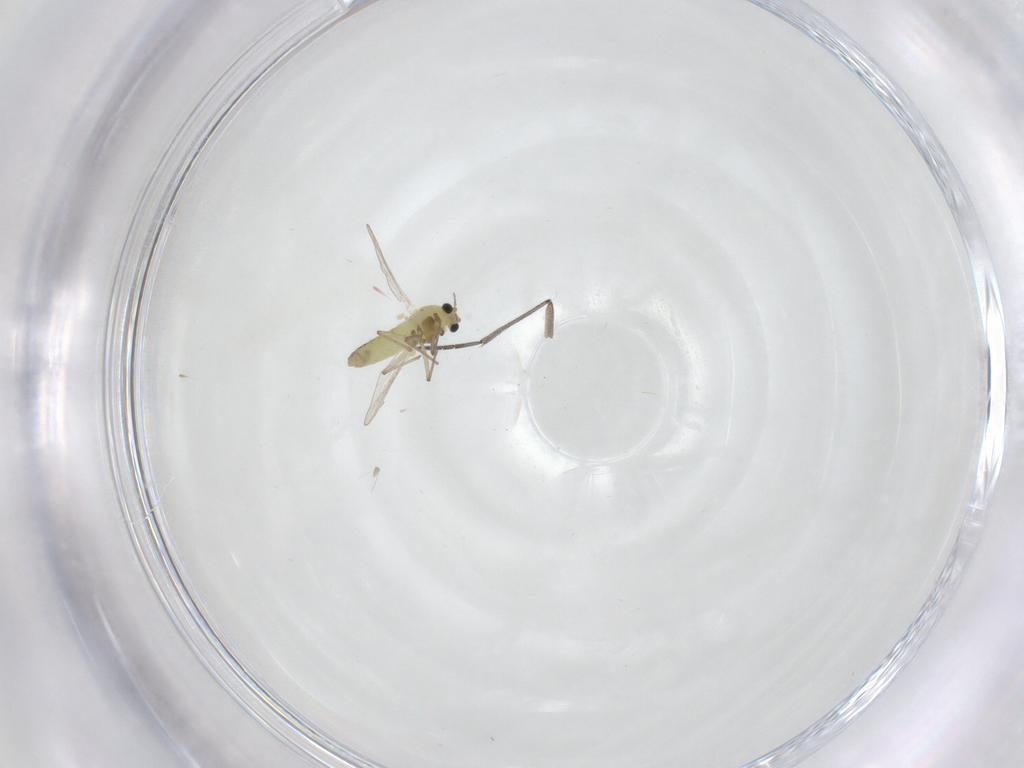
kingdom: Animalia
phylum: Arthropoda
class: Insecta
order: Diptera
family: Chironomidae
